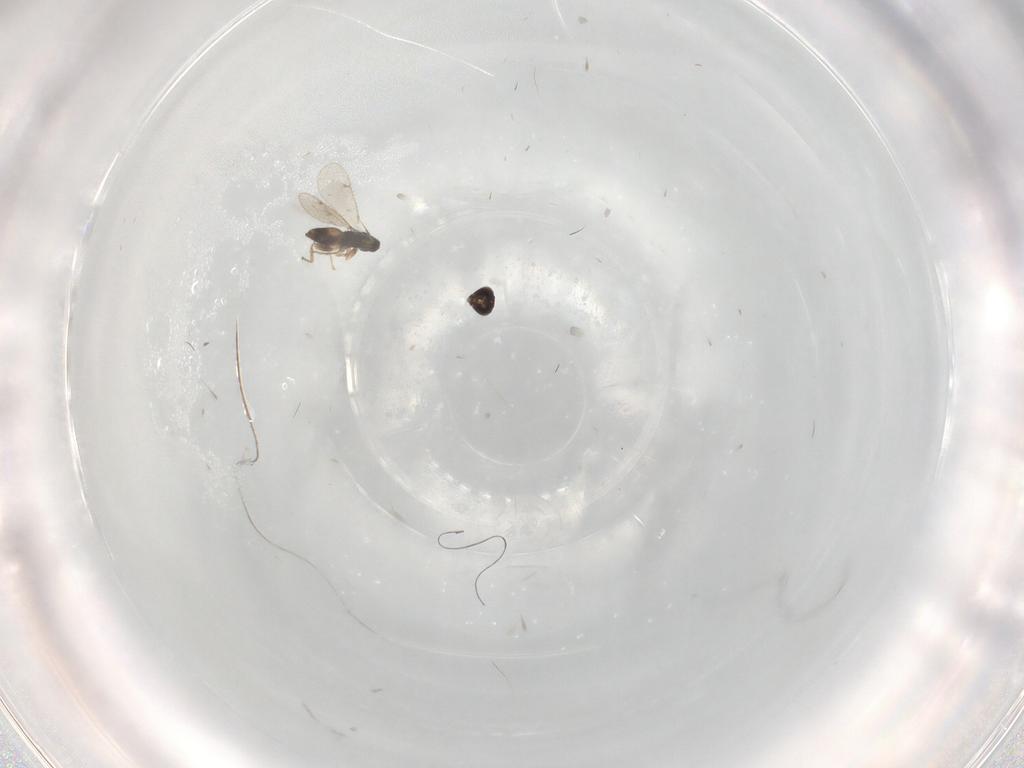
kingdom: Animalia
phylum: Arthropoda
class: Insecta
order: Hymenoptera
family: Eulophidae
